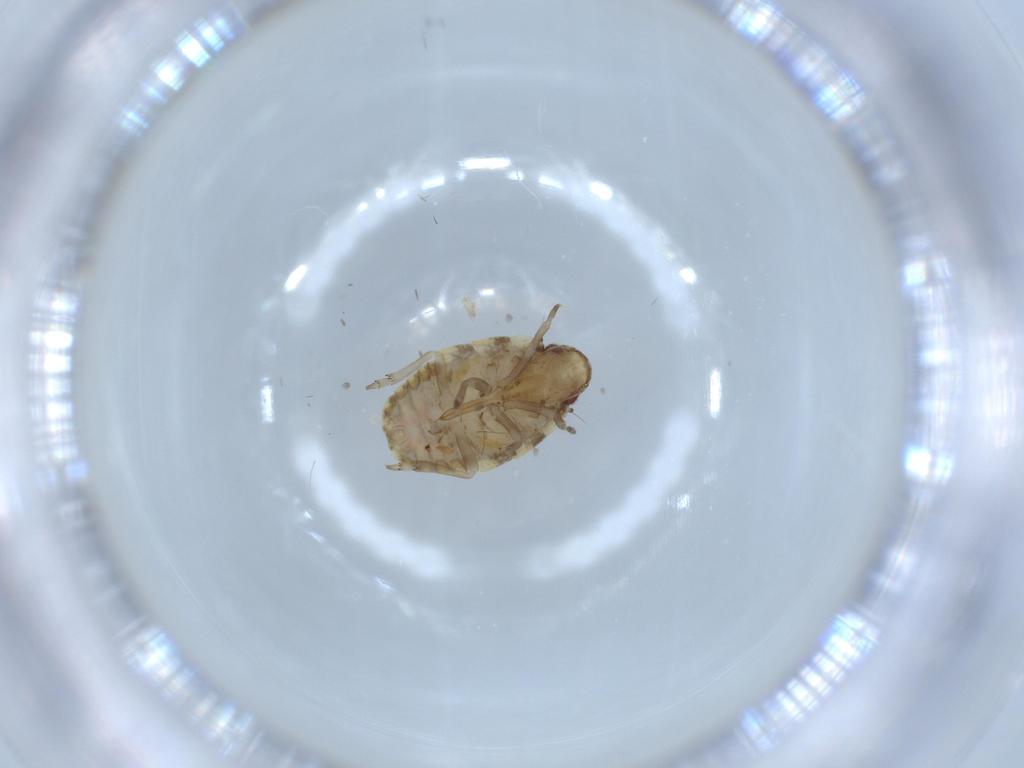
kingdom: Animalia
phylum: Arthropoda
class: Insecta
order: Hemiptera
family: Flatidae
